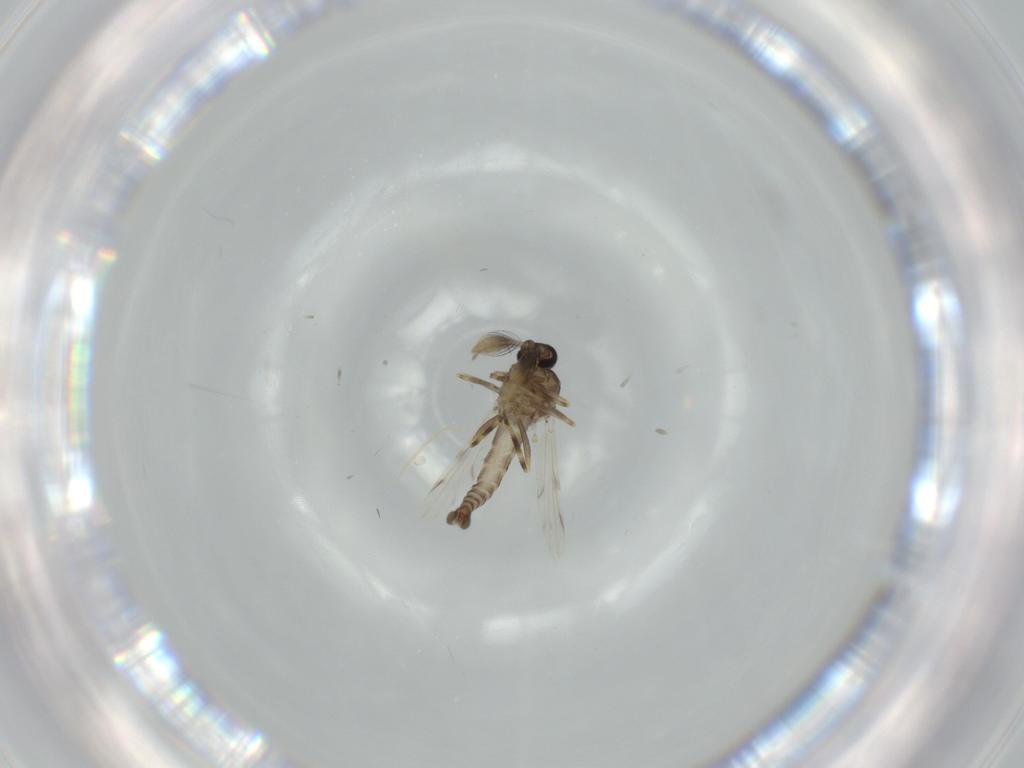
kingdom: Animalia
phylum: Arthropoda
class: Insecta
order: Diptera
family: Ceratopogonidae
